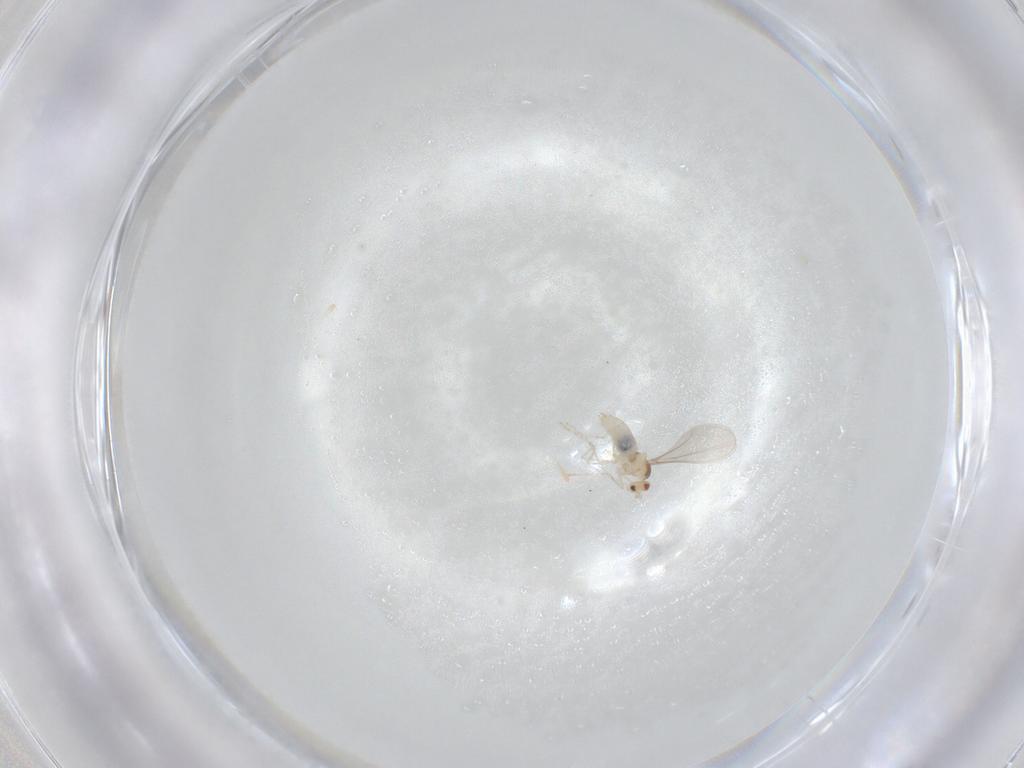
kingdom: Animalia
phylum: Arthropoda
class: Insecta
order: Diptera
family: Cecidomyiidae
